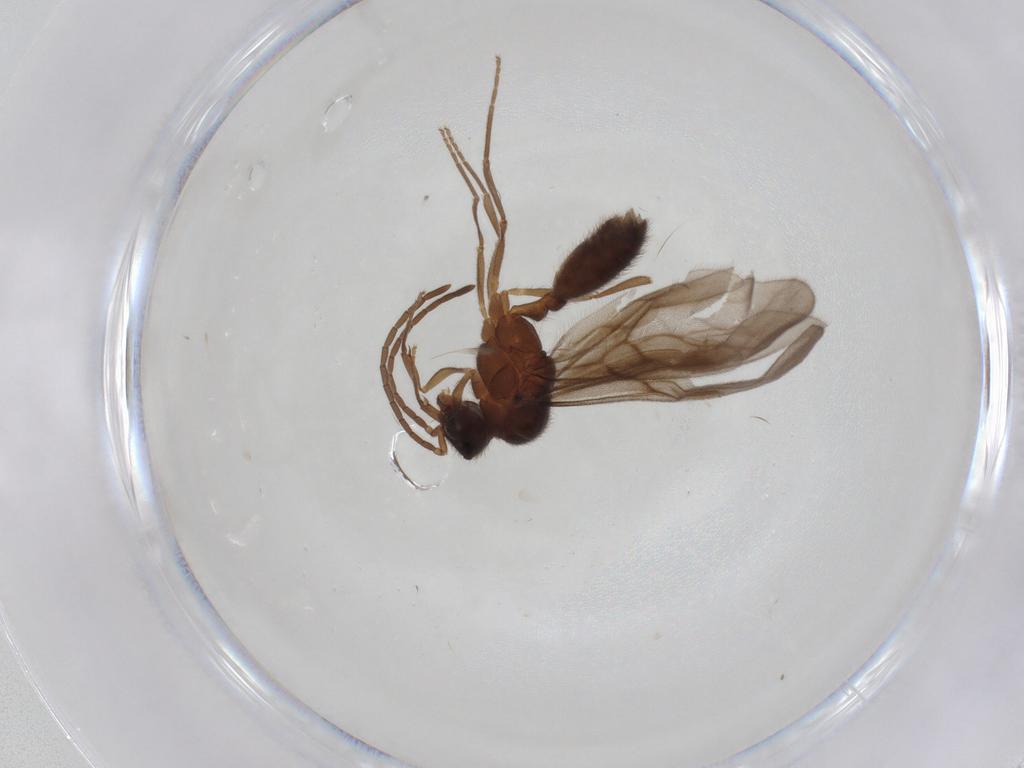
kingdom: Animalia
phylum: Arthropoda
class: Insecta
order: Hymenoptera
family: Formicidae
